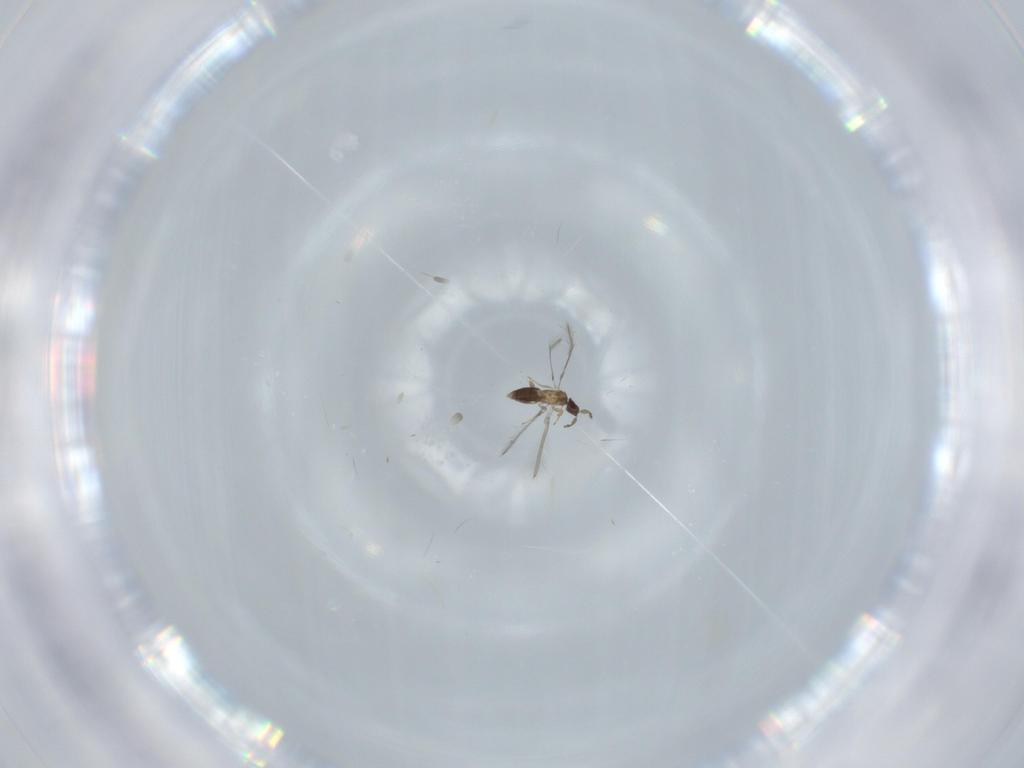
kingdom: Animalia
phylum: Arthropoda
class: Insecta
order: Hymenoptera
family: Mymaridae
